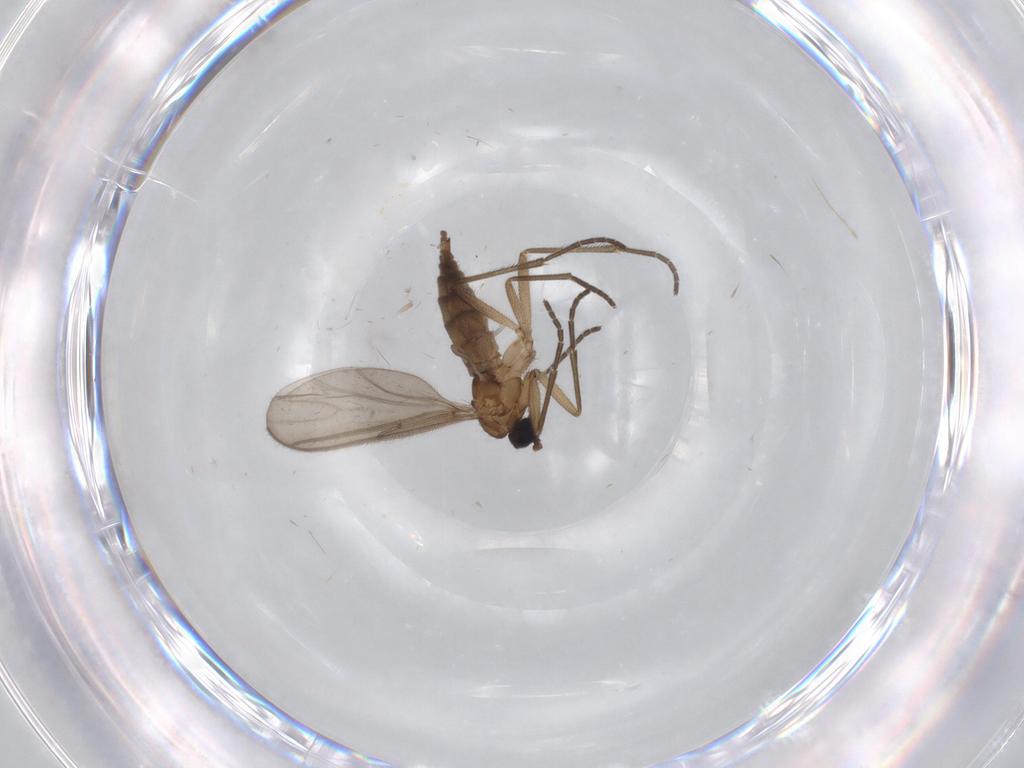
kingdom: Animalia
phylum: Arthropoda
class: Insecta
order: Diptera
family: Sciaridae
